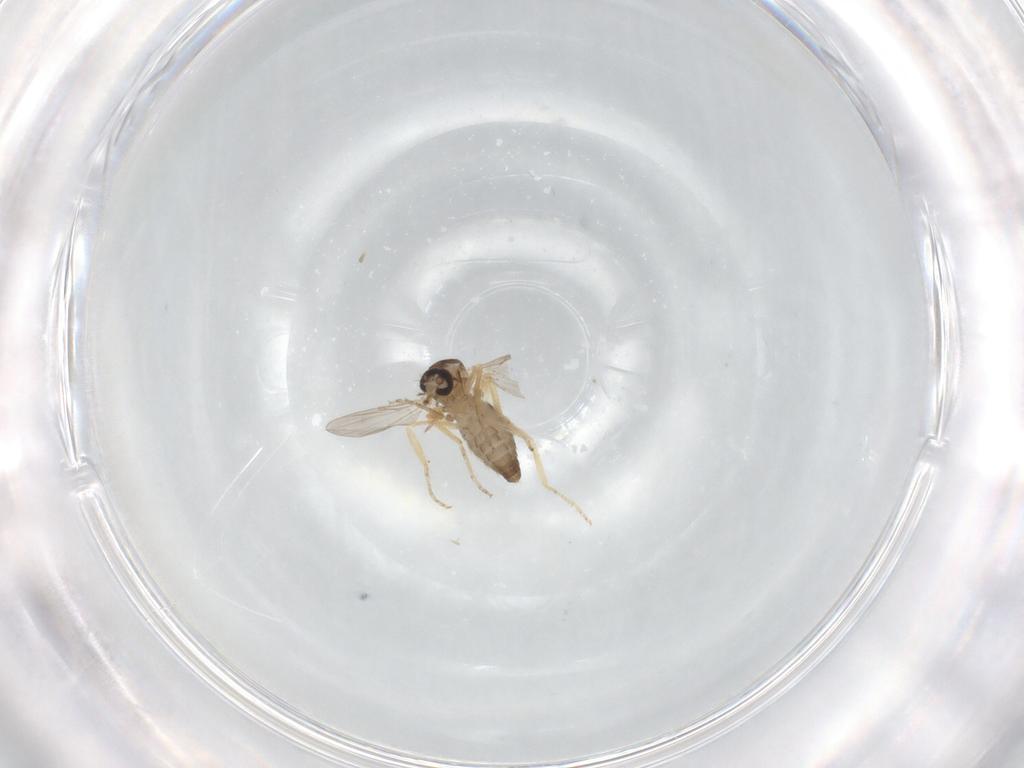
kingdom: Animalia
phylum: Arthropoda
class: Insecta
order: Diptera
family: Ceratopogonidae
